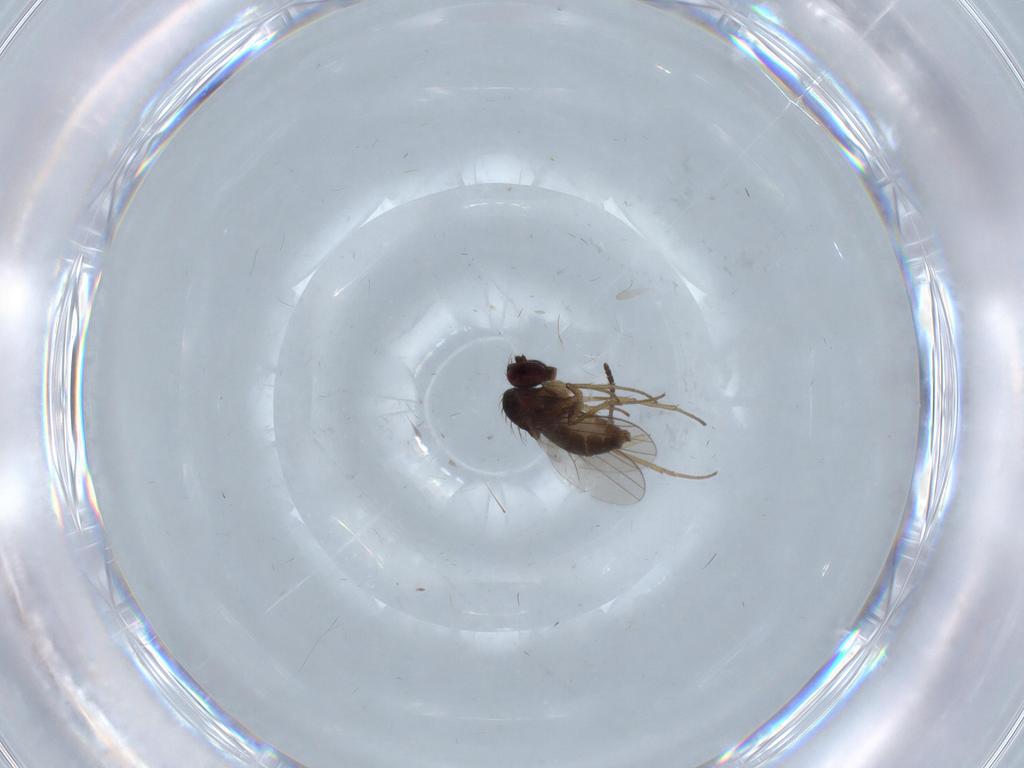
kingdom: Animalia
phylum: Arthropoda
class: Insecta
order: Diptera
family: Dolichopodidae
